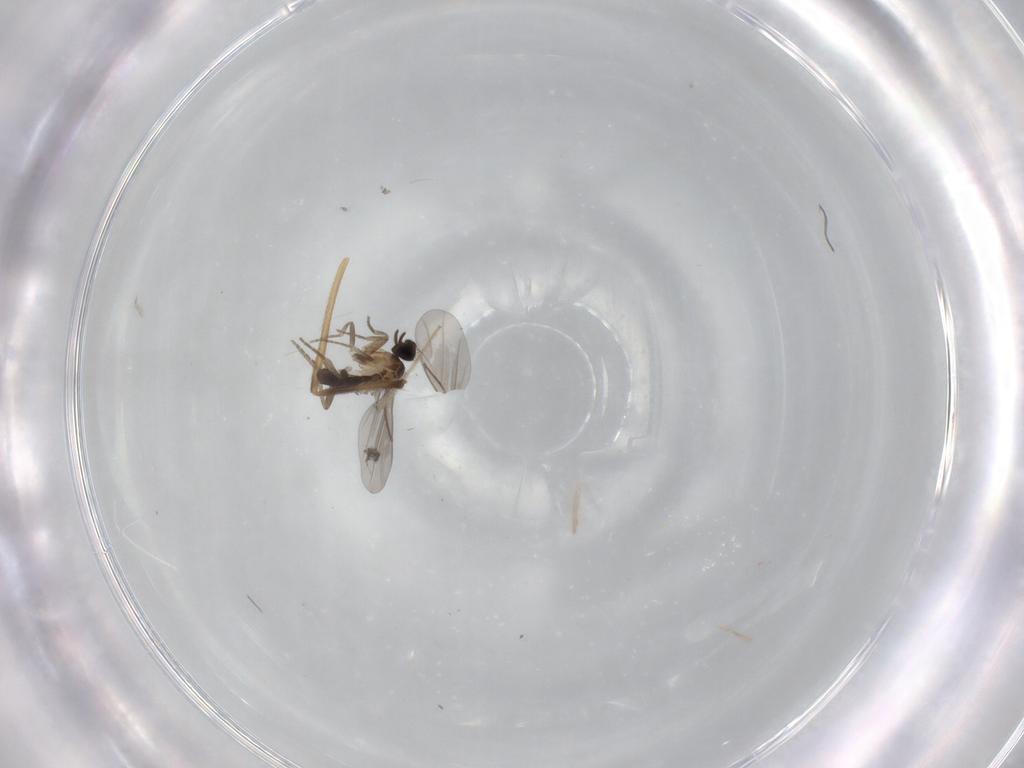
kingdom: Animalia
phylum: Arthropoda
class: Insecta
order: Diptera
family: Chironomidae
